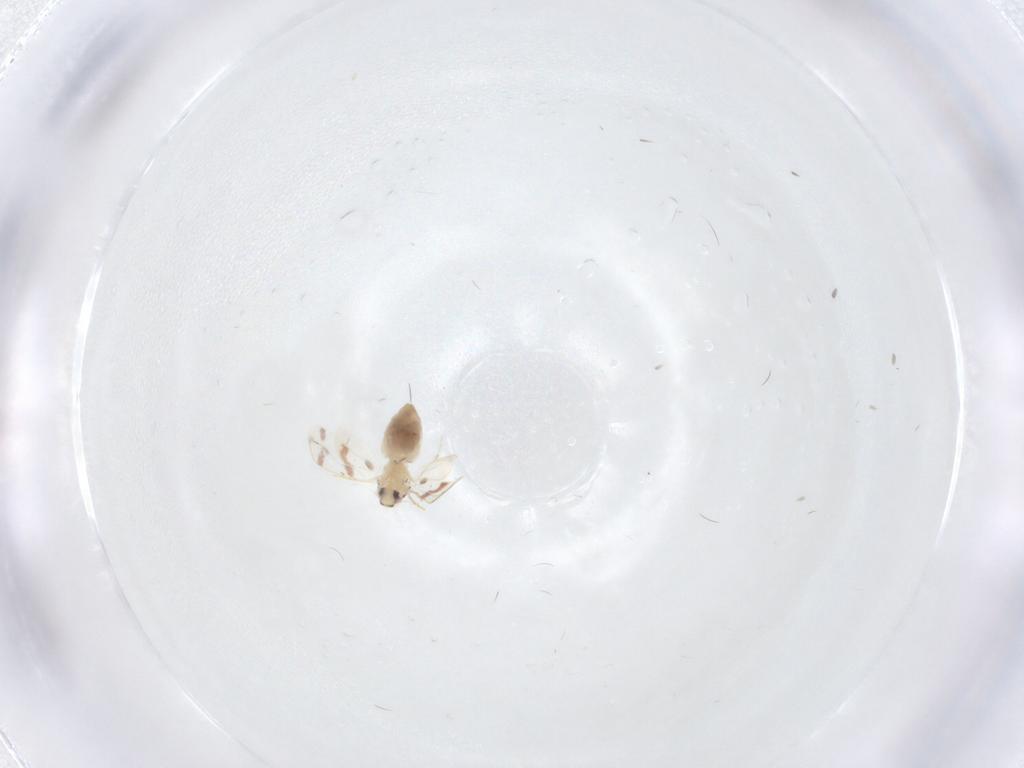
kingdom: Animalia
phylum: Arthropoda
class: Insecta
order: Hemiptera
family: Aleyrodidae
